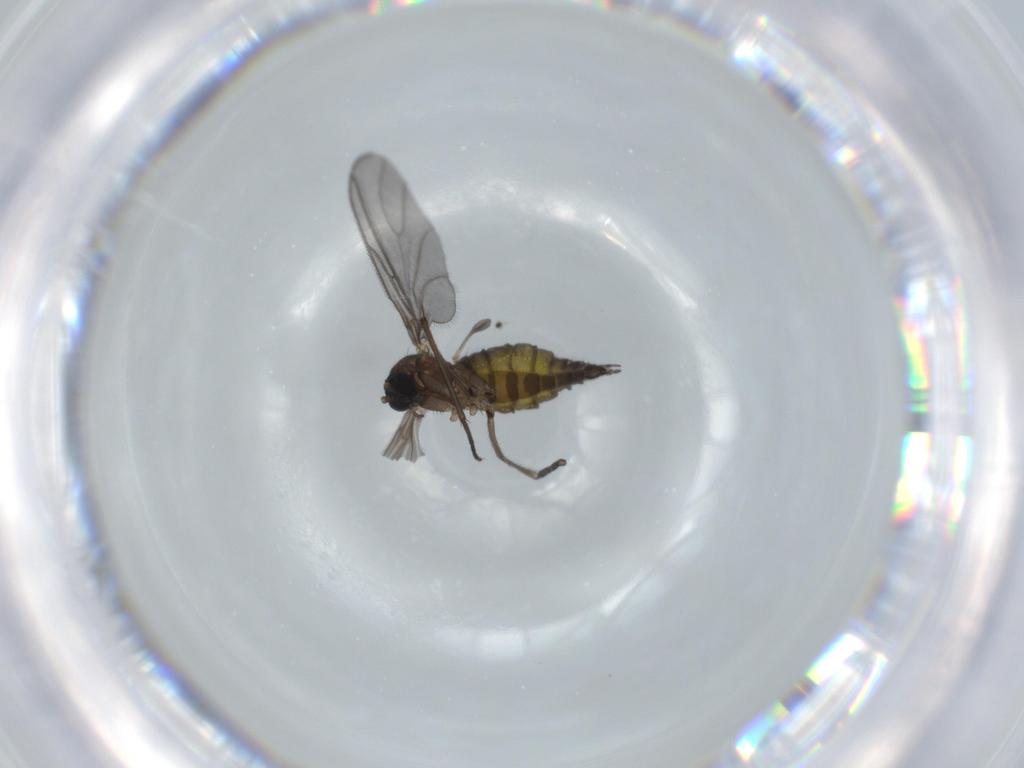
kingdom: Animalia
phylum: Arthropoda
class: Insecta
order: Diptera
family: Sciaridae
